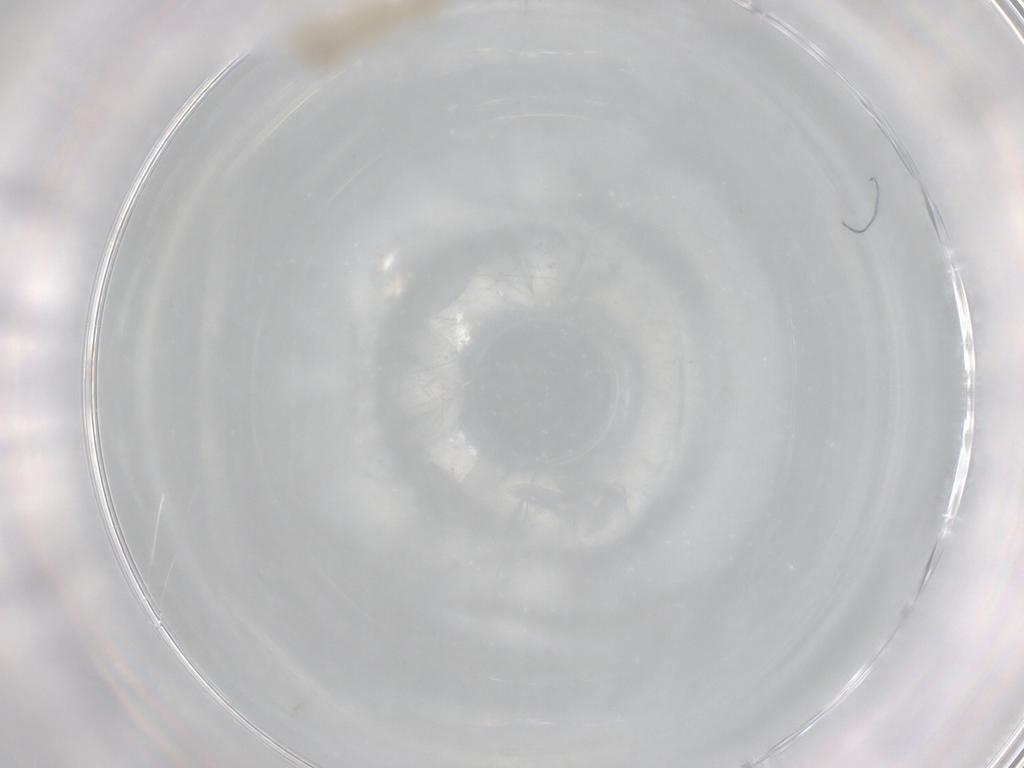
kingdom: Animalia
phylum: Arthropoda
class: Insecta
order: Diptera
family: Chironomidae
